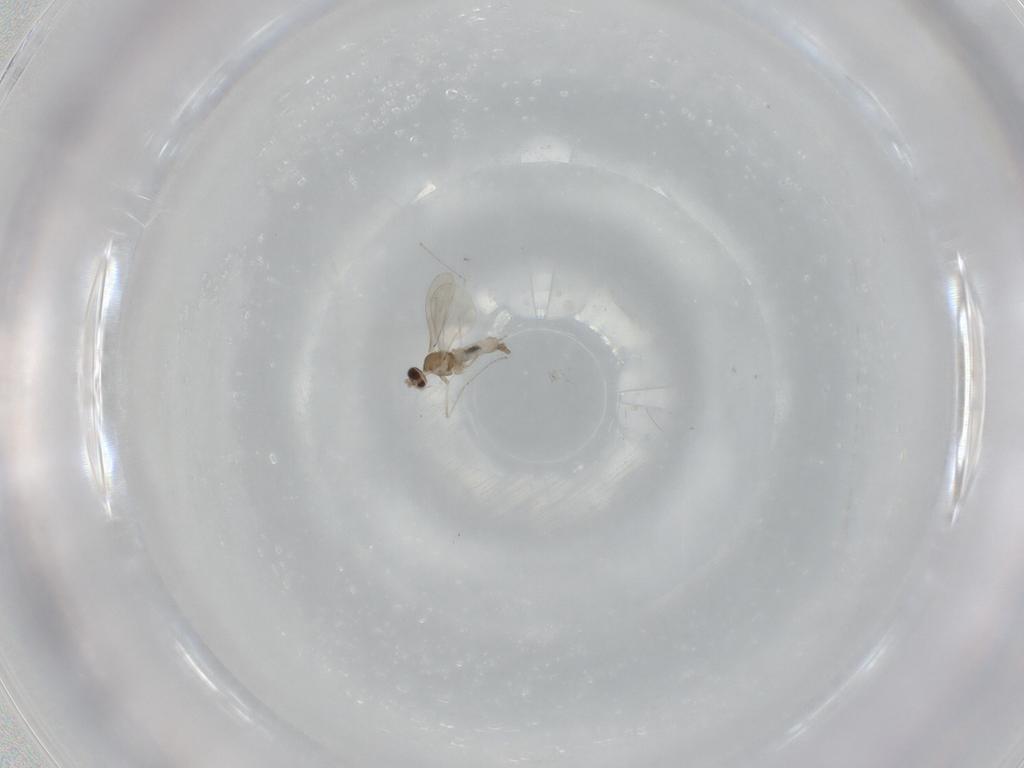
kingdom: Animalia
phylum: Arthropoda
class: Insecta
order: Diptera
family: Cecidomyiidae
